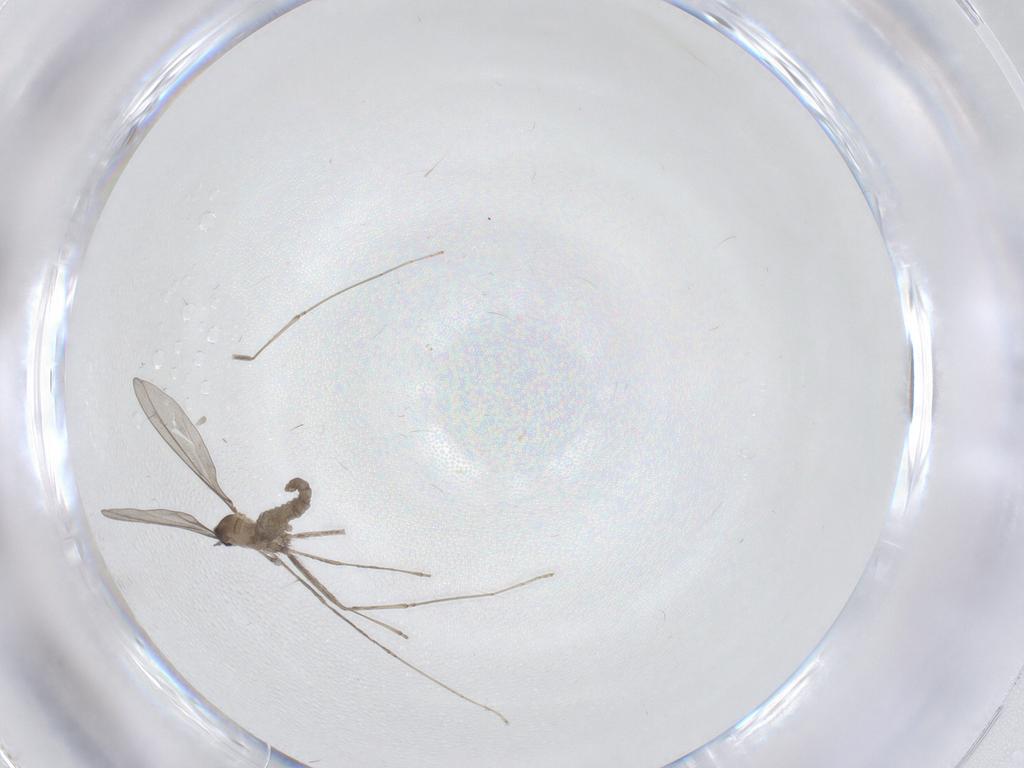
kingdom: Animalia
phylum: Arthropoda
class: Insecta
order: Diptera
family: Cecidomyiidae
